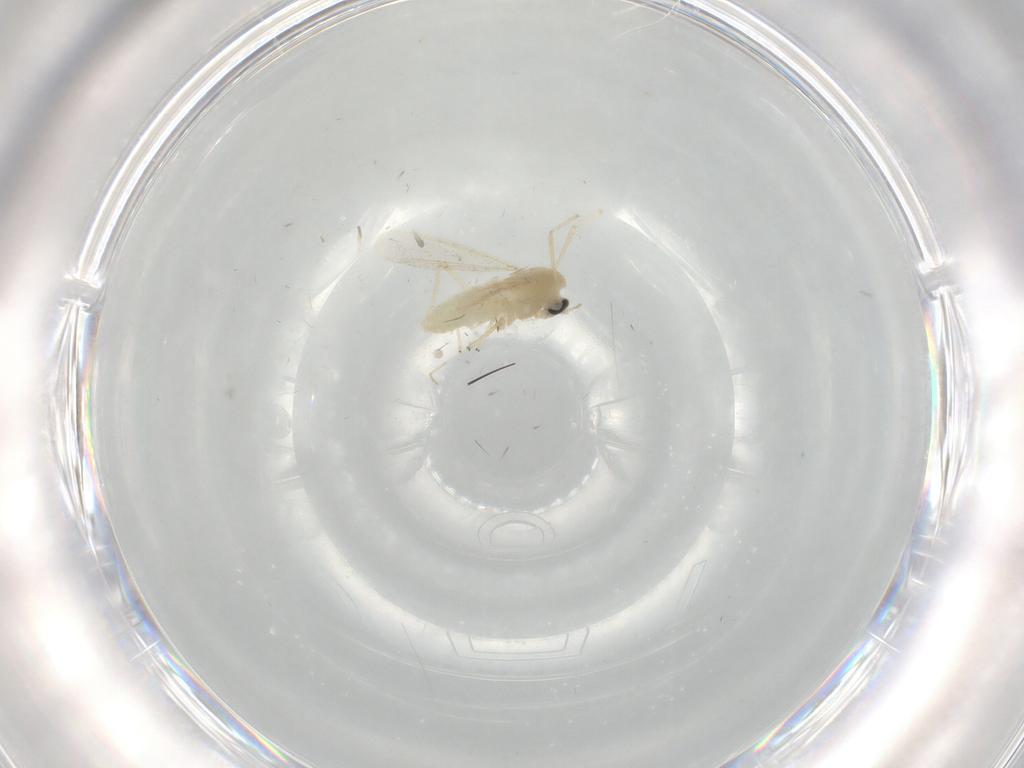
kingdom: Animalia
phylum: Arthropoda
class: Insecta
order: Diptera
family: Chironomidae
